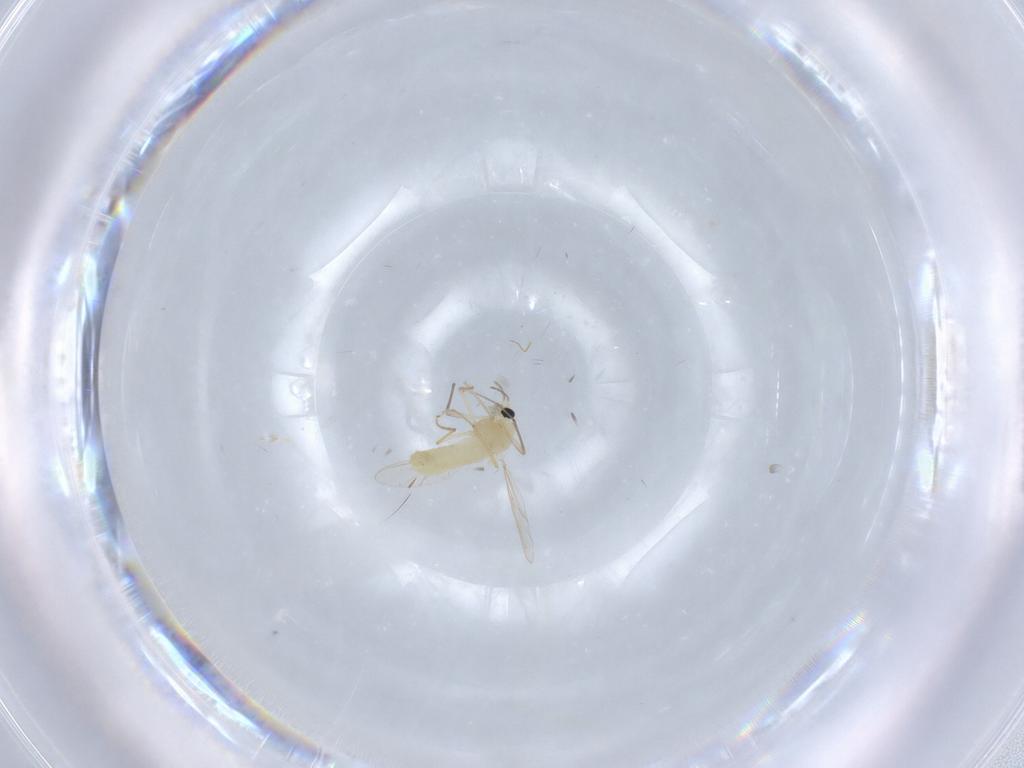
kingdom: Animalia
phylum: Arthropoda
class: Insecta
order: Diptera
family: Chironomidae
